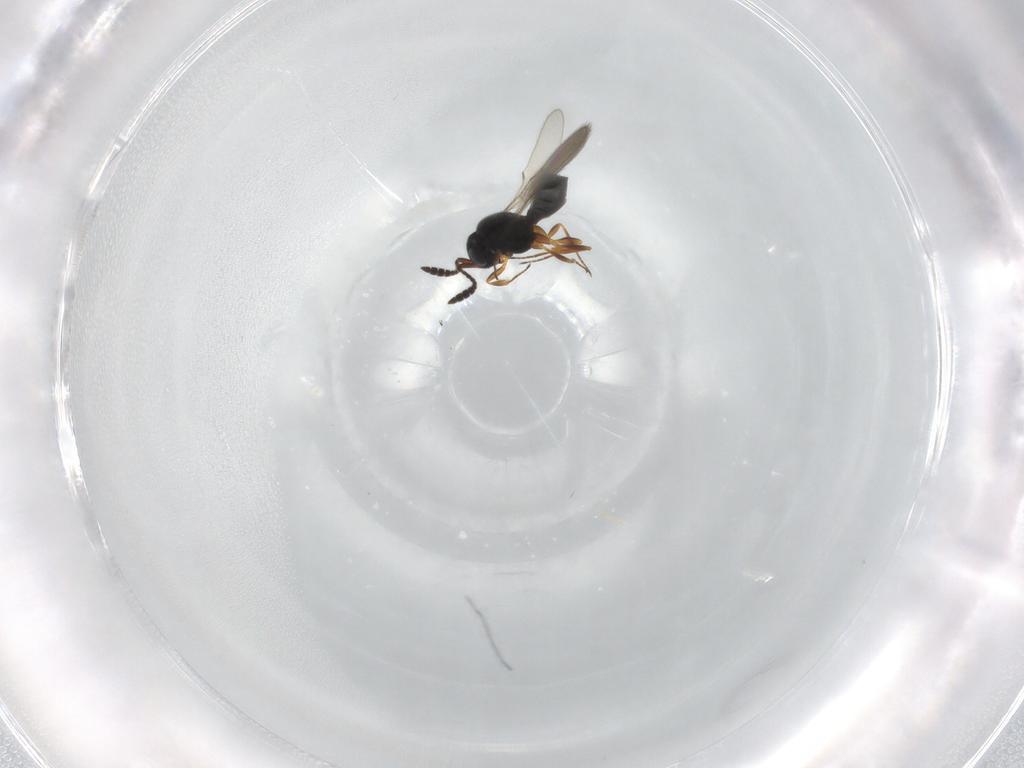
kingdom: Animalia
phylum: Arthropoda
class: Insecta
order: Hymenoptera
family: Scelionidae
